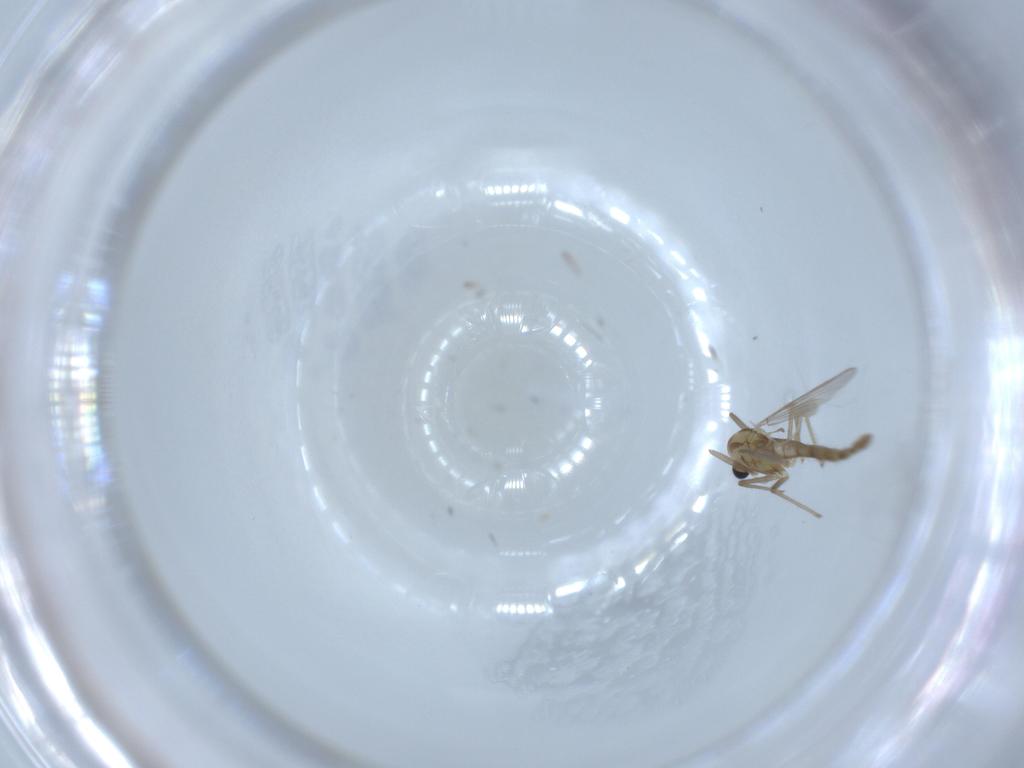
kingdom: Animalia
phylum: Arthropoda
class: Insecta
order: Diptera
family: Chironomidae
